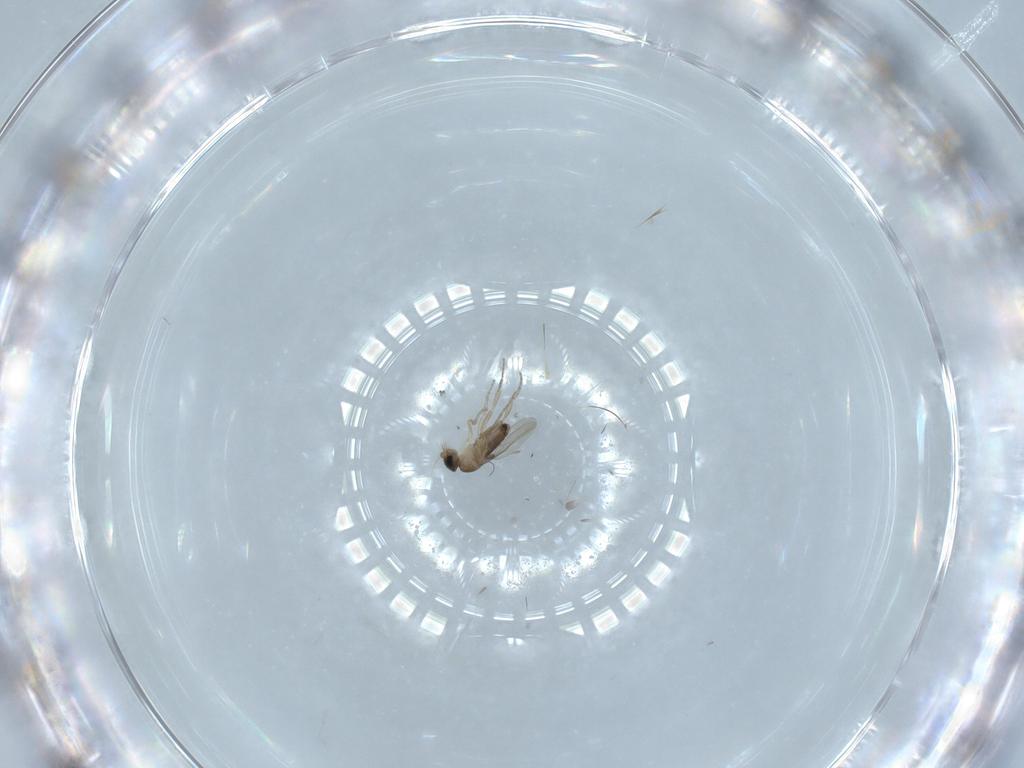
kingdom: Animalia
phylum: Arthropoda
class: Insecta
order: Diptera
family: Phoridae
